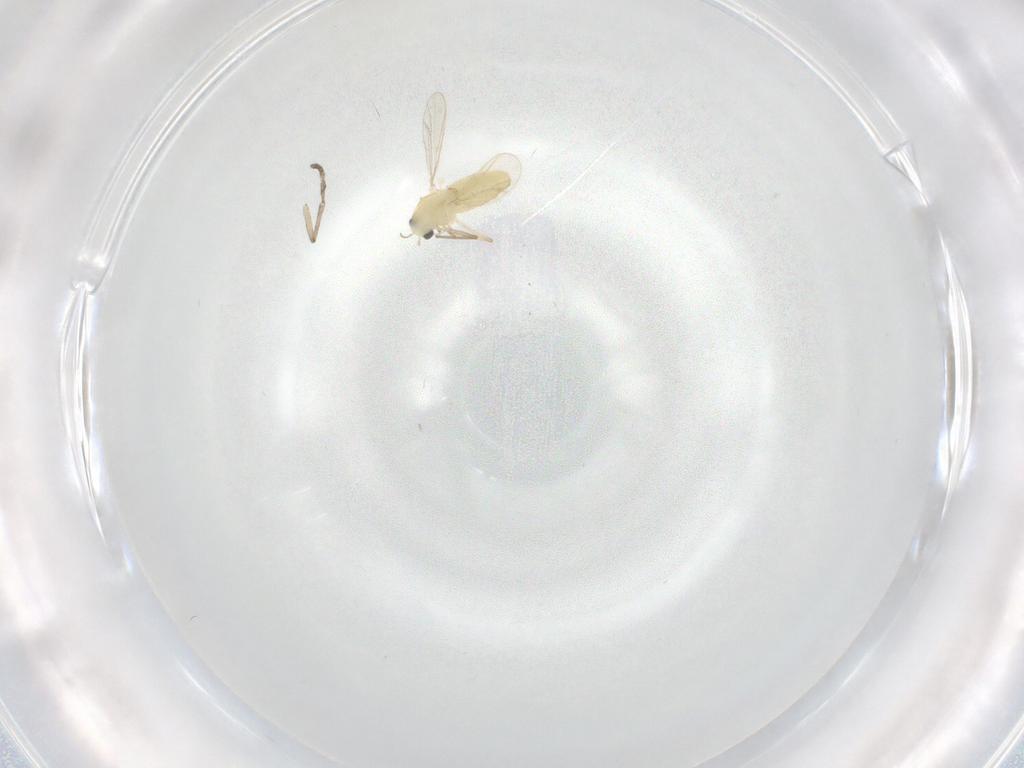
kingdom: Animalia
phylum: Arthropoda
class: Insecta
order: Diptera
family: Chironomidae
